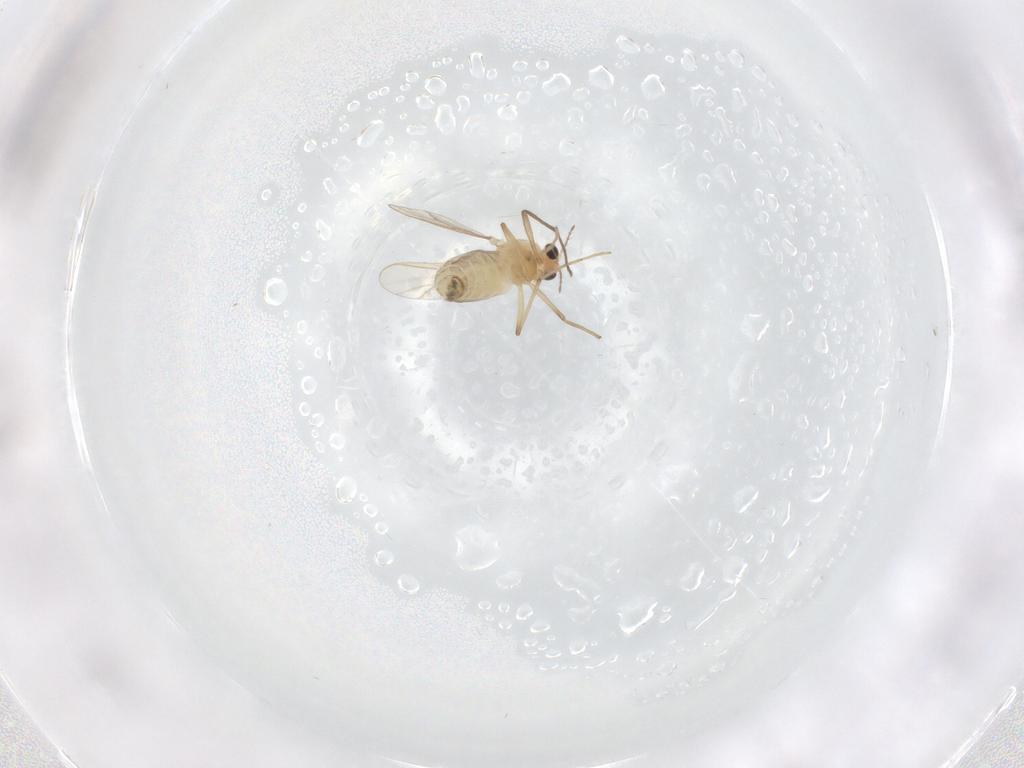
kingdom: Animalia
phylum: Arthropoda
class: Insecta
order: Diptera
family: Chironomidae
